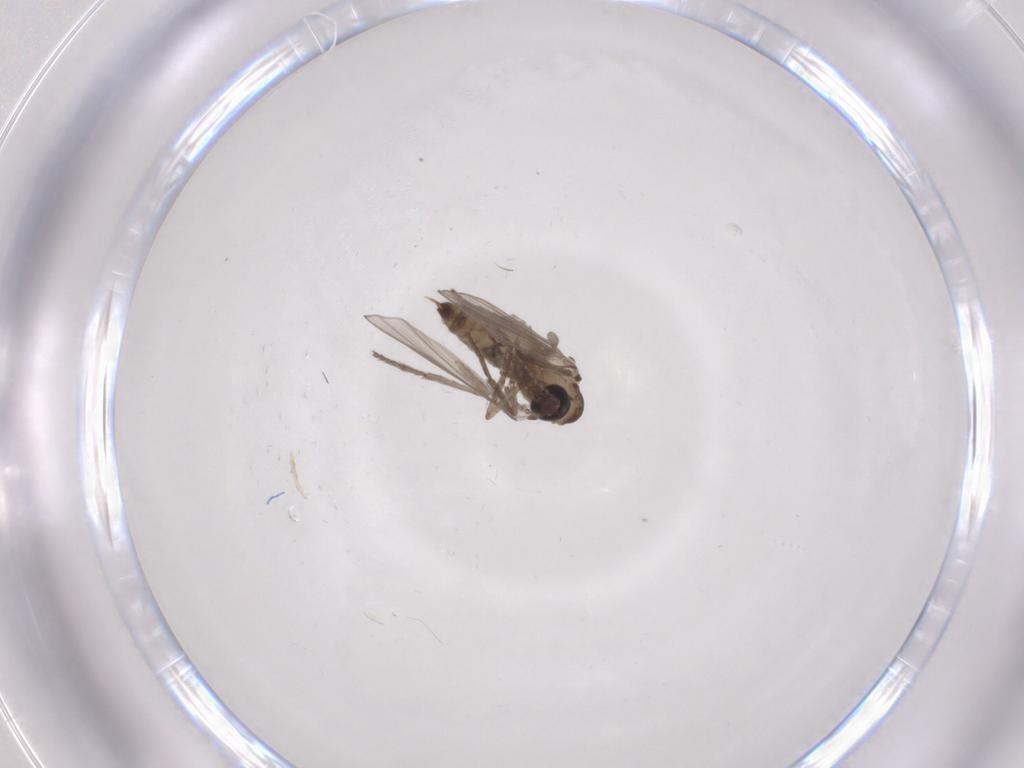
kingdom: Animalia
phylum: Arthropoda
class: Insecta
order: Diptera
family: Sciaridae
